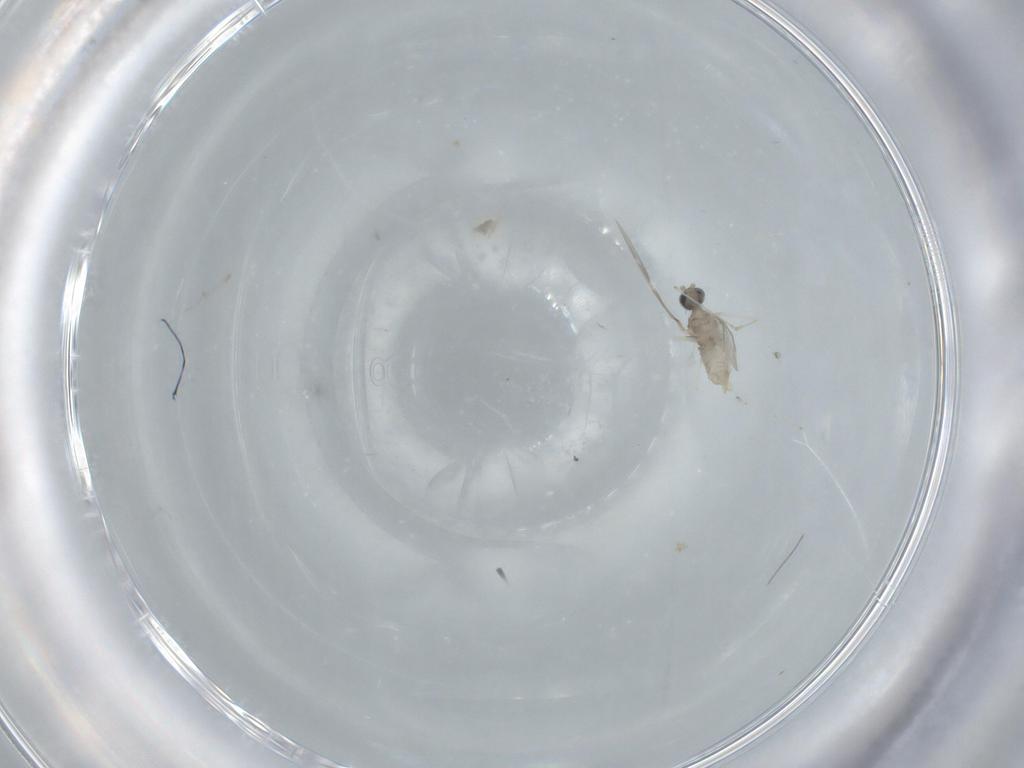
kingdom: Animalia
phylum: Arthropoda
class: Insecta
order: Diptera
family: Cecidomyiidae
